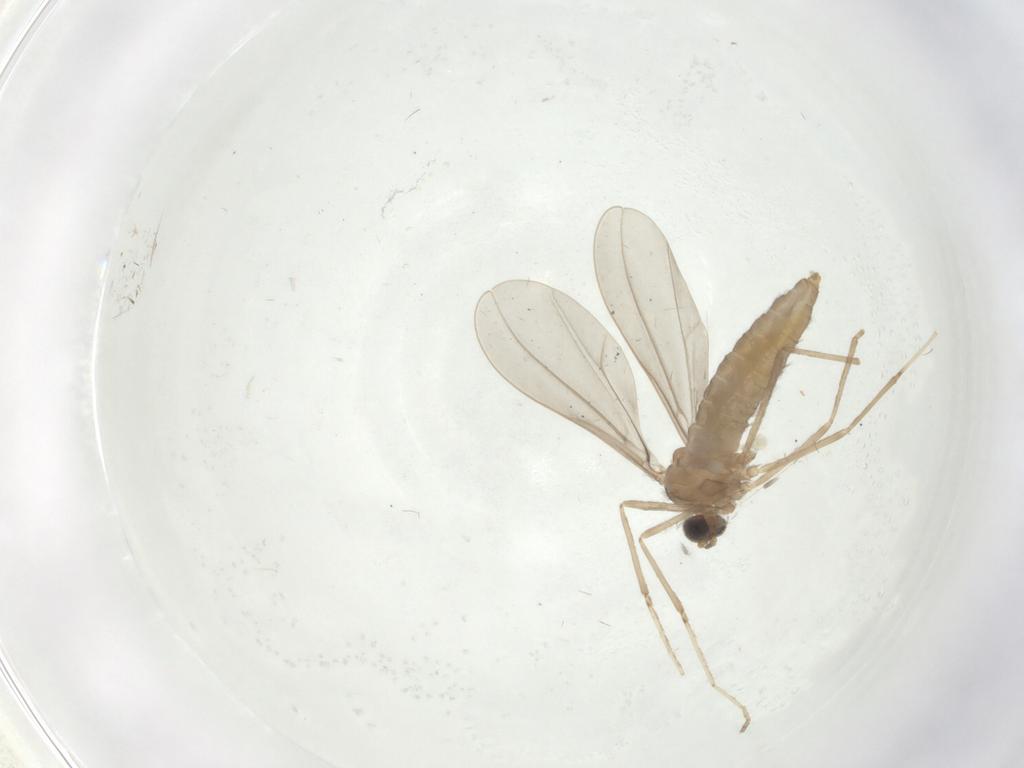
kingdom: Animalia
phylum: Arthropoda
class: Insecta
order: Diptera
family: Cecidomyiidae
